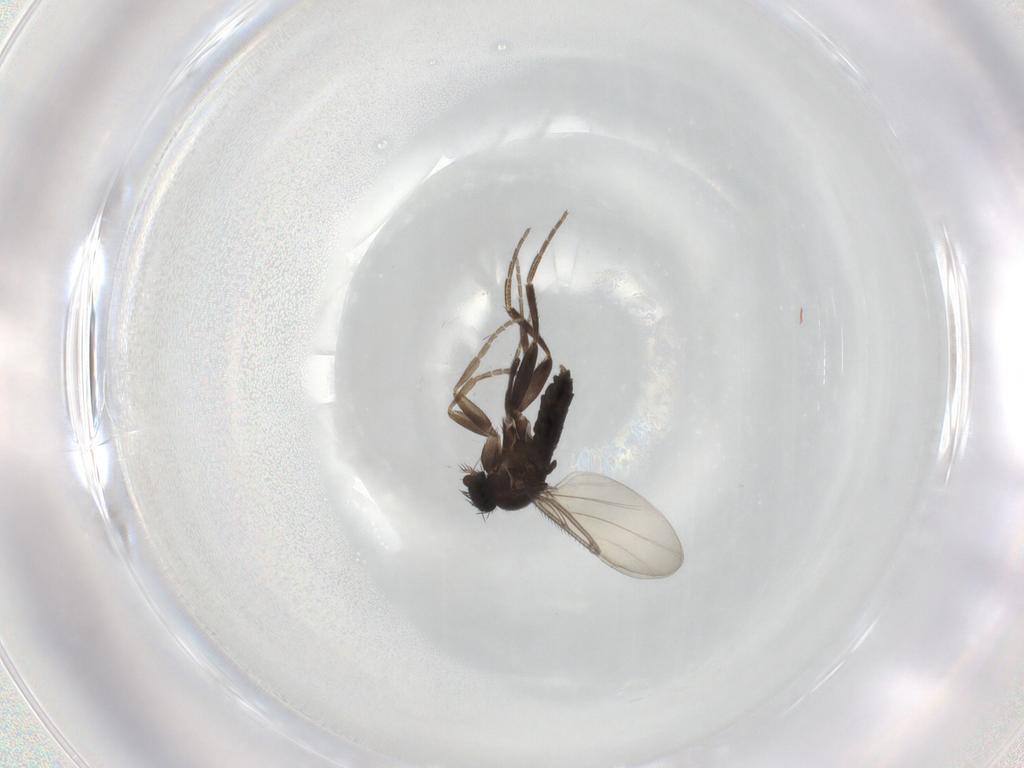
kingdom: Animalia
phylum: Arthropoda
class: Insecta
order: Diptera
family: Phoridae
